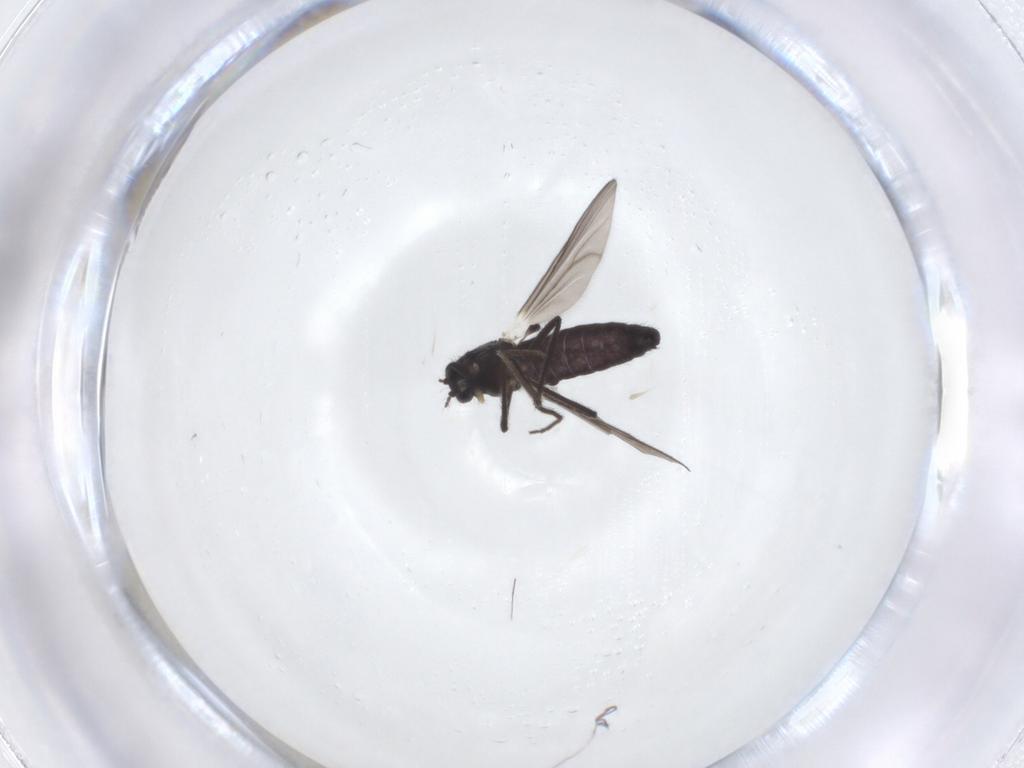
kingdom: Animalia
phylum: Arthropoda
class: Insecta
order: Diptera
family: Chironomidae
